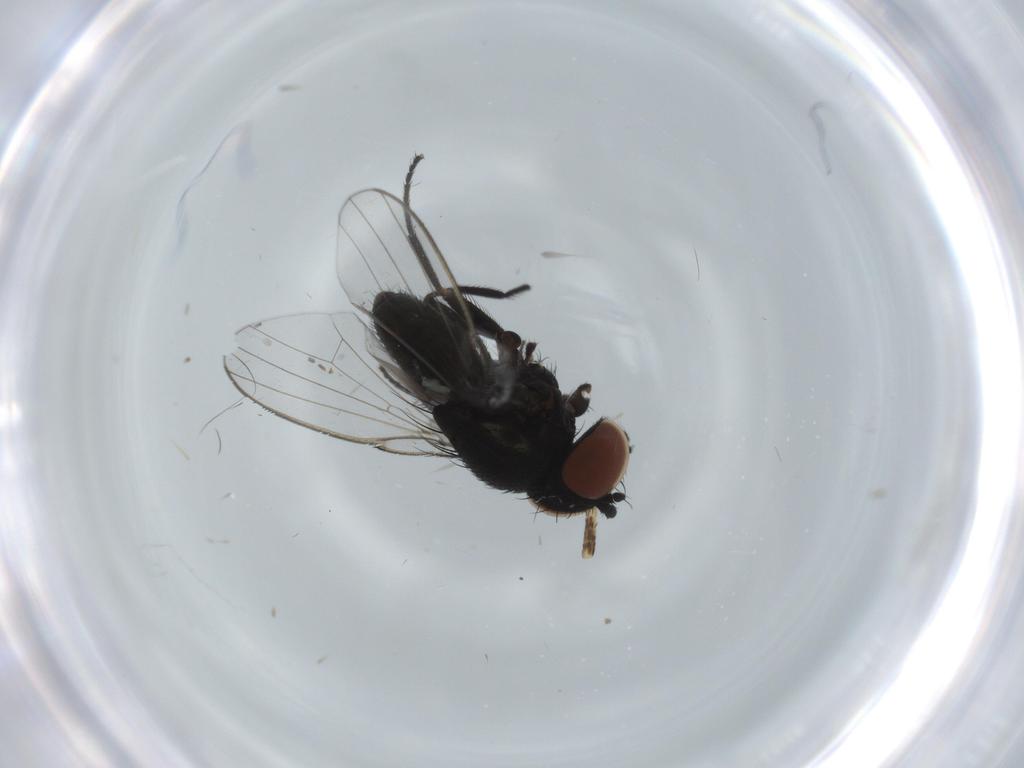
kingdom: Animalia
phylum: Arthropoda
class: Insecta
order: Diptera
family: Milichiidae
